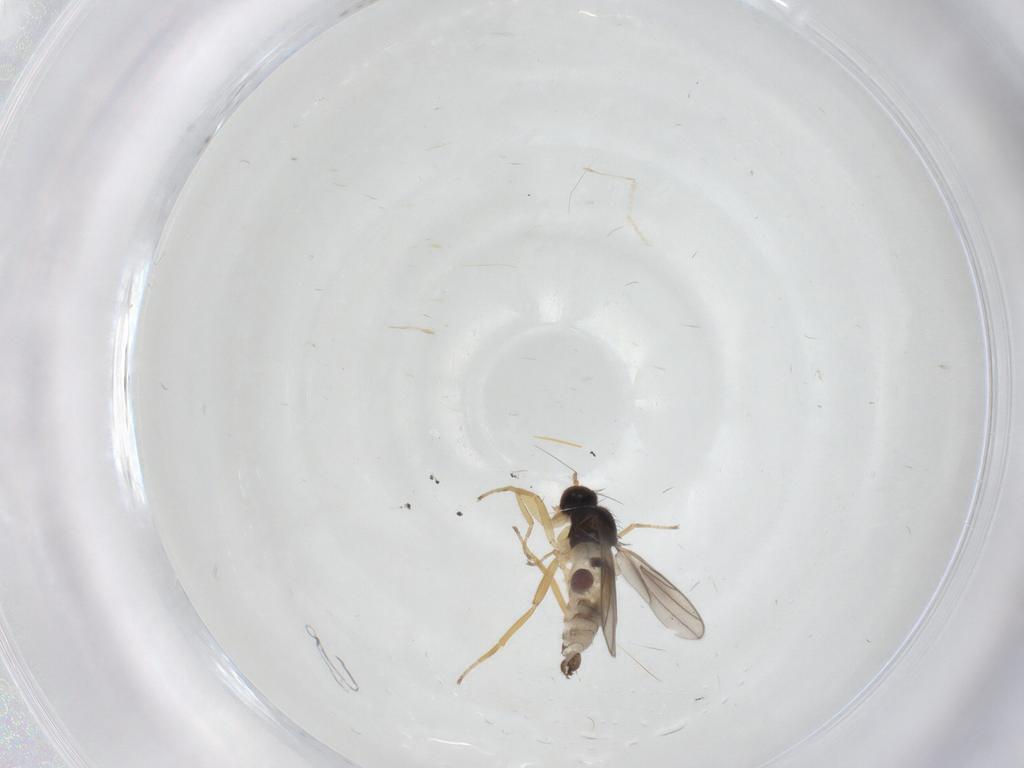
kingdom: Animalia
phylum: Arthropoda
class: Insecta
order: Diptera
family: Hybotidae
